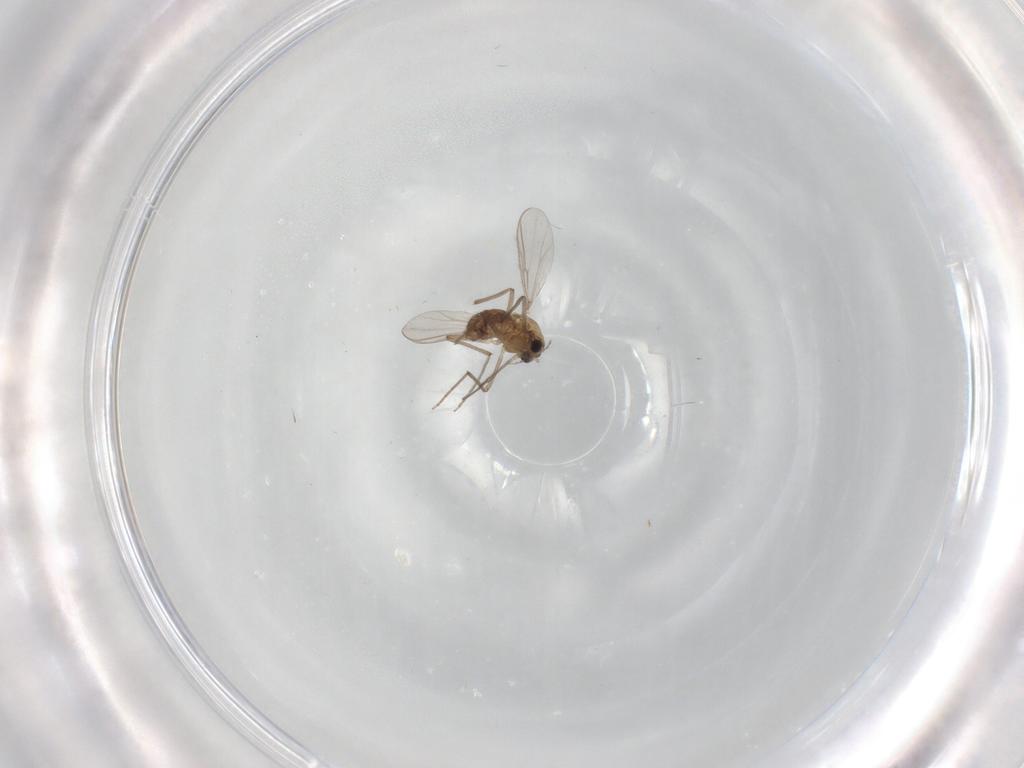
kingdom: Animalia
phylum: Arthropoda
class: Insecta
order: Diptera
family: Chironomidae
